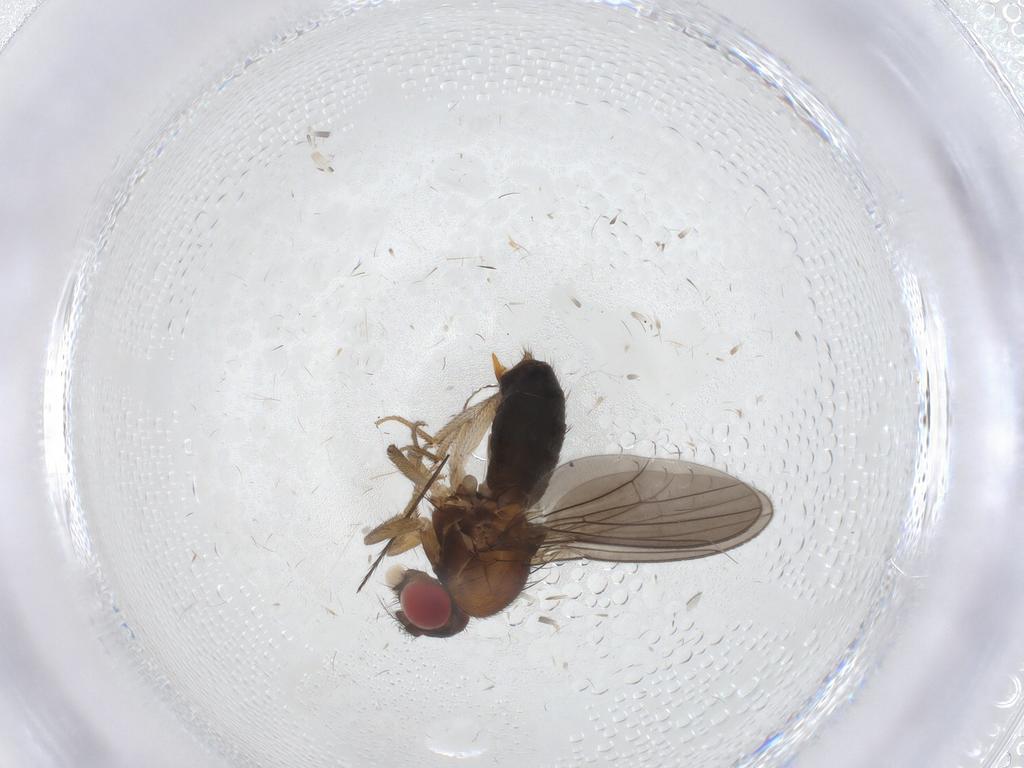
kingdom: Animalia
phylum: Arthropoda
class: Insecta
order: Diptera
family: Drosophilidae
